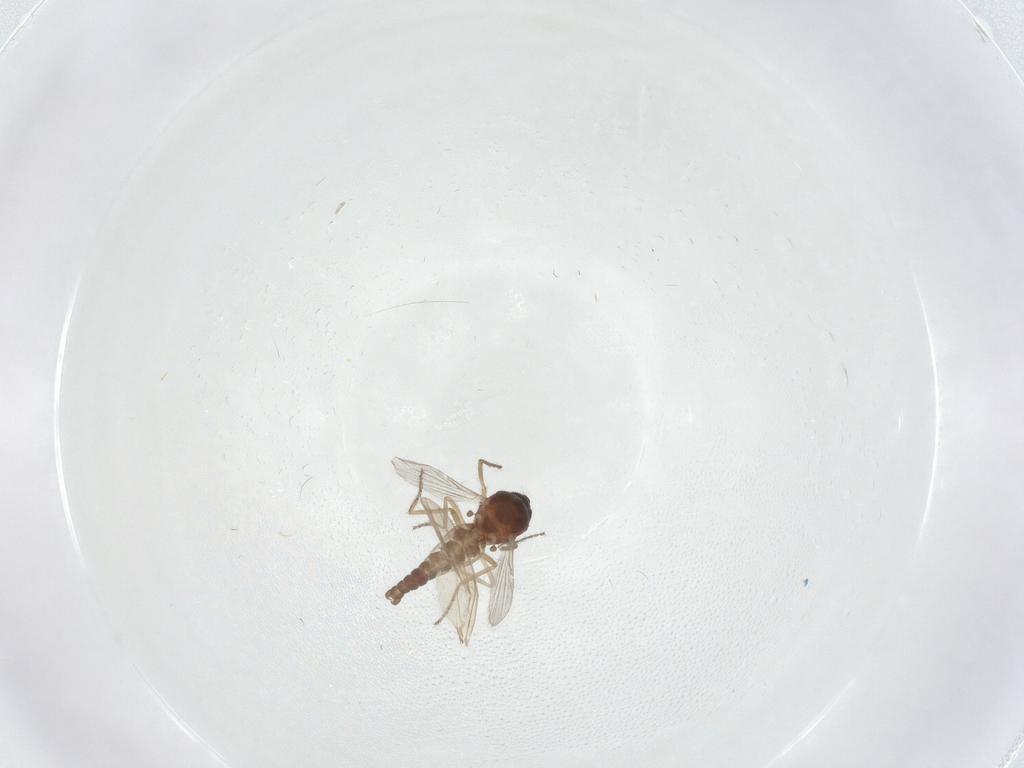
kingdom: Animalia
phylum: Arthropoda
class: Insecta
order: Diptera
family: Ceratopogonidae
